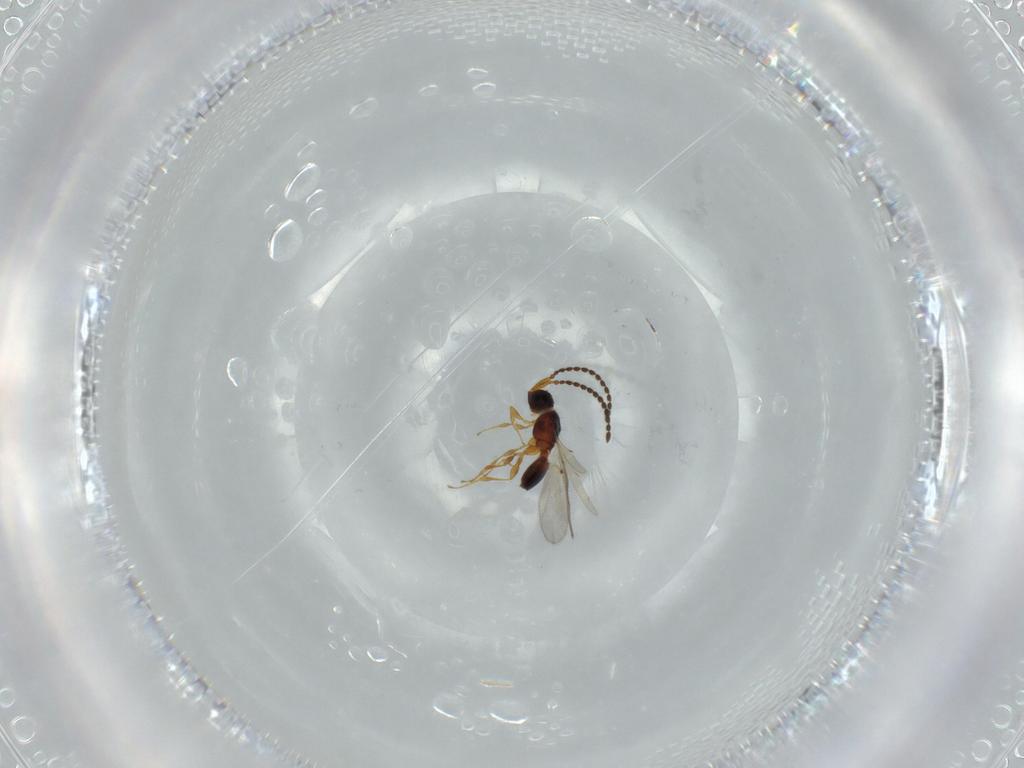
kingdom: Animalia
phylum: Arthropoda
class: Insecta
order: Hymenoptera
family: Diapriidae
